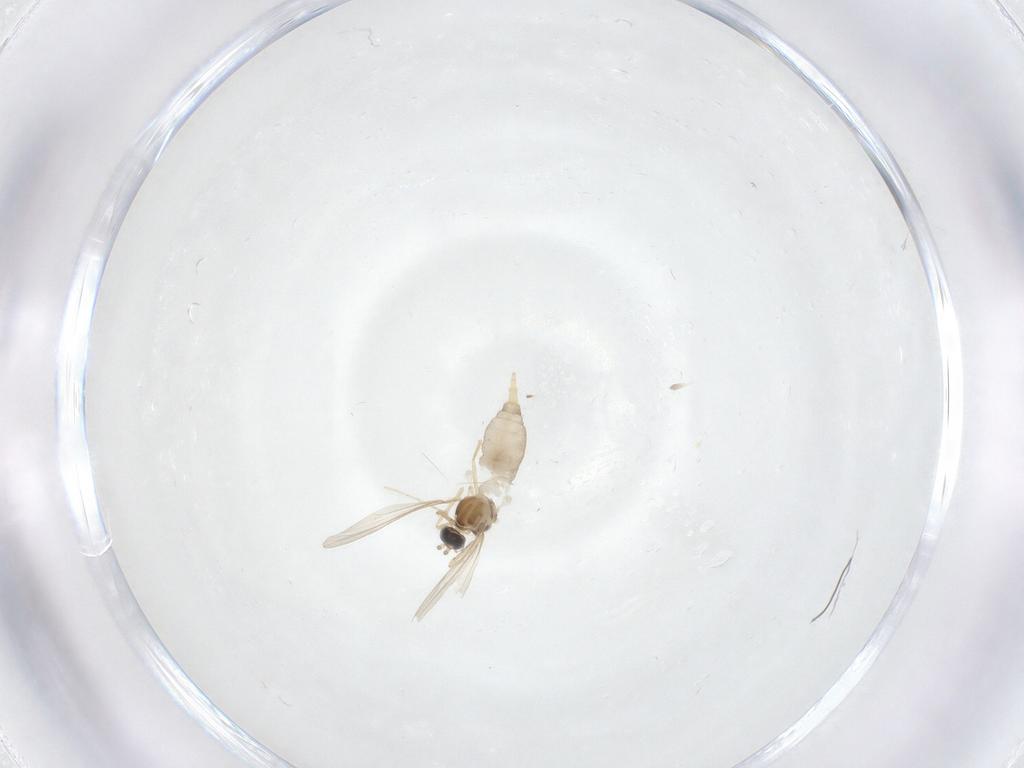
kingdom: Animalia
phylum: Arthropoda
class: Insecta
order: Diptera
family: Cecidomyiidae
